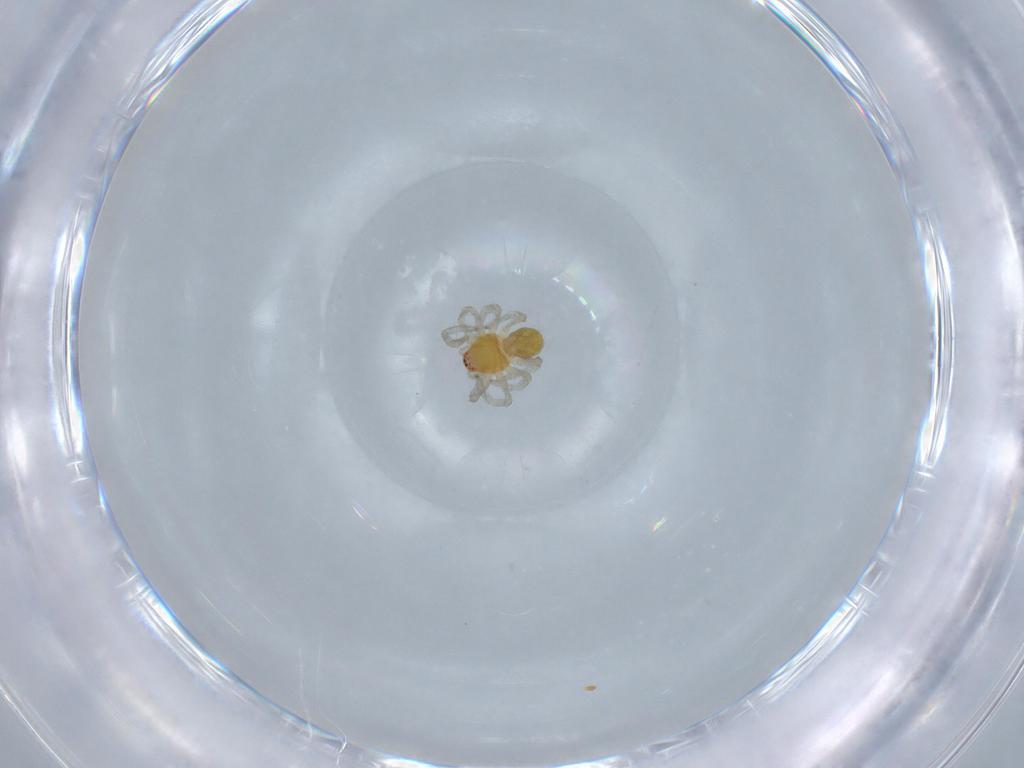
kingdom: Animalia
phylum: Arthropoda
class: Arachnida
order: Araneae
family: Dictynidae
